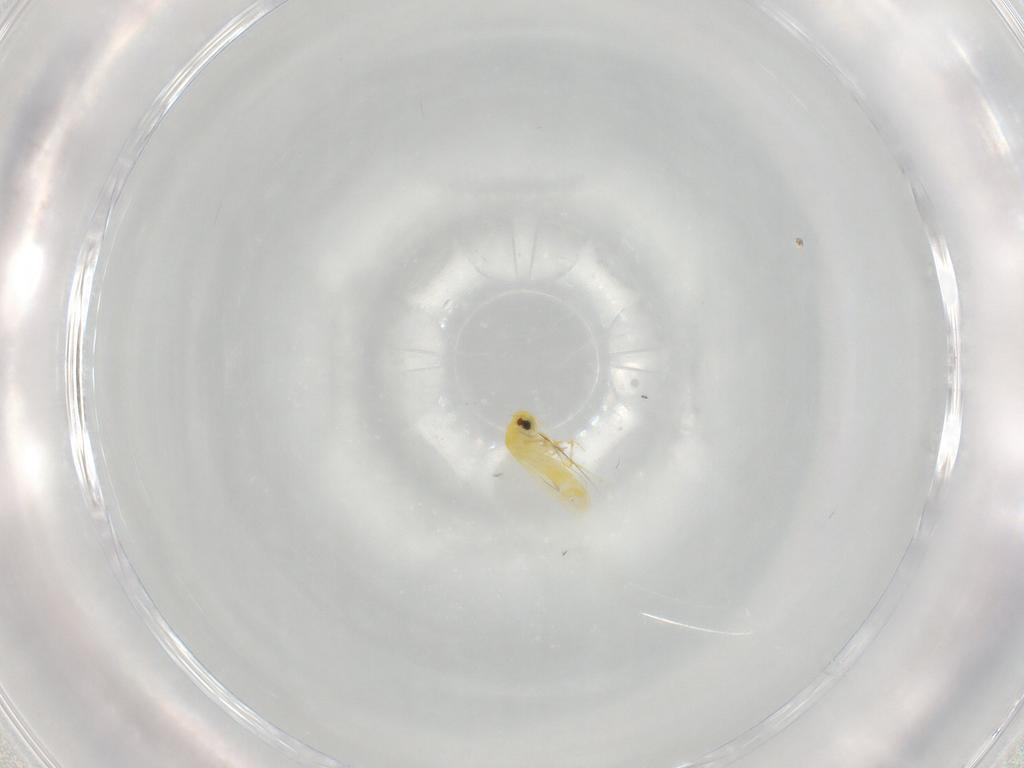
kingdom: Animalia
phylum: Arthropoda
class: Insecta
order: Hemiptera
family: Aleyrodidae
